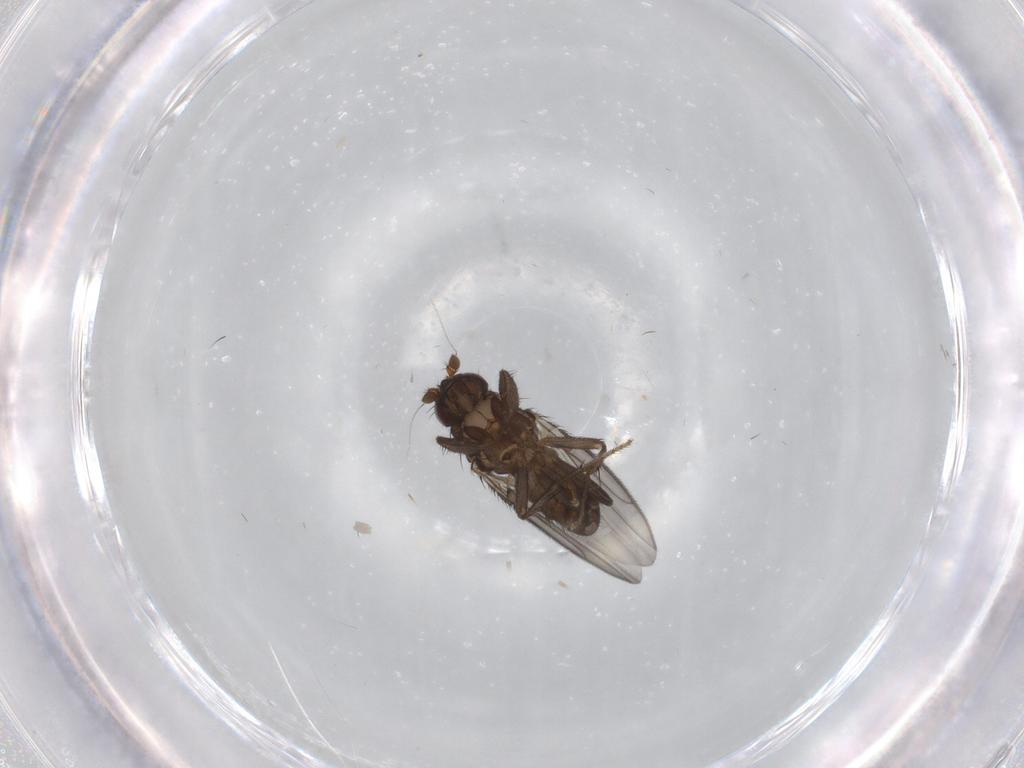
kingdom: Animalia
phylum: Arthropoda
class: Insecta
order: Diptera
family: Sphaeroceridae
